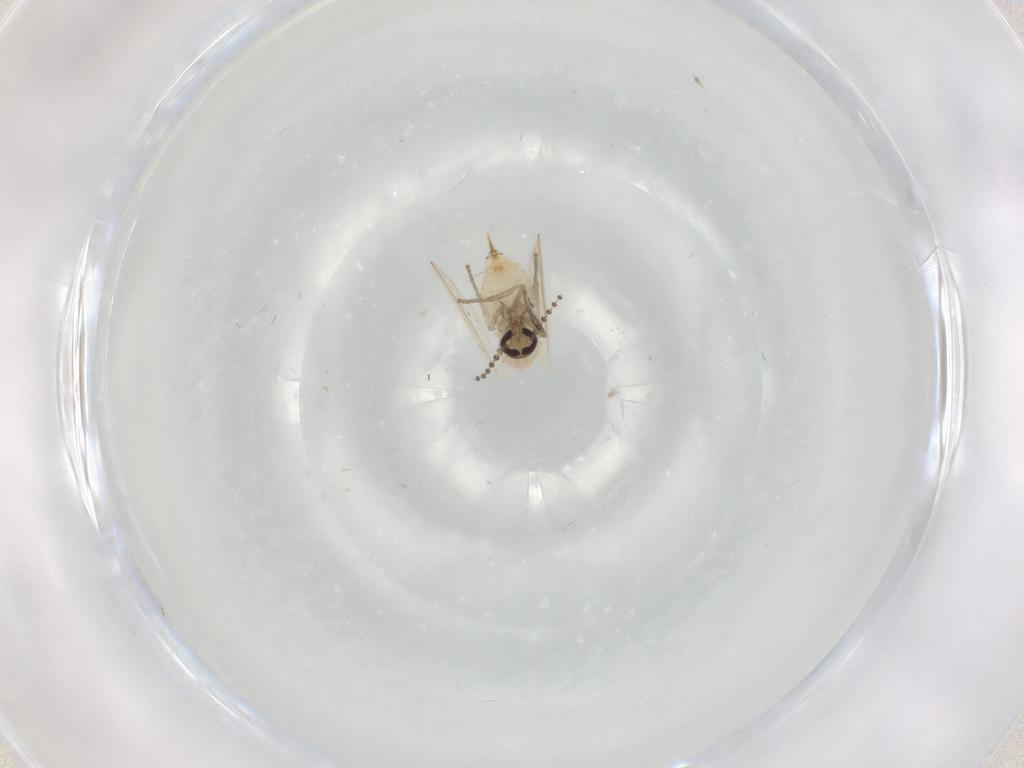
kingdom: Animalia
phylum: Arthropoda
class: Insecta
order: Diptera
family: Psychodidae
